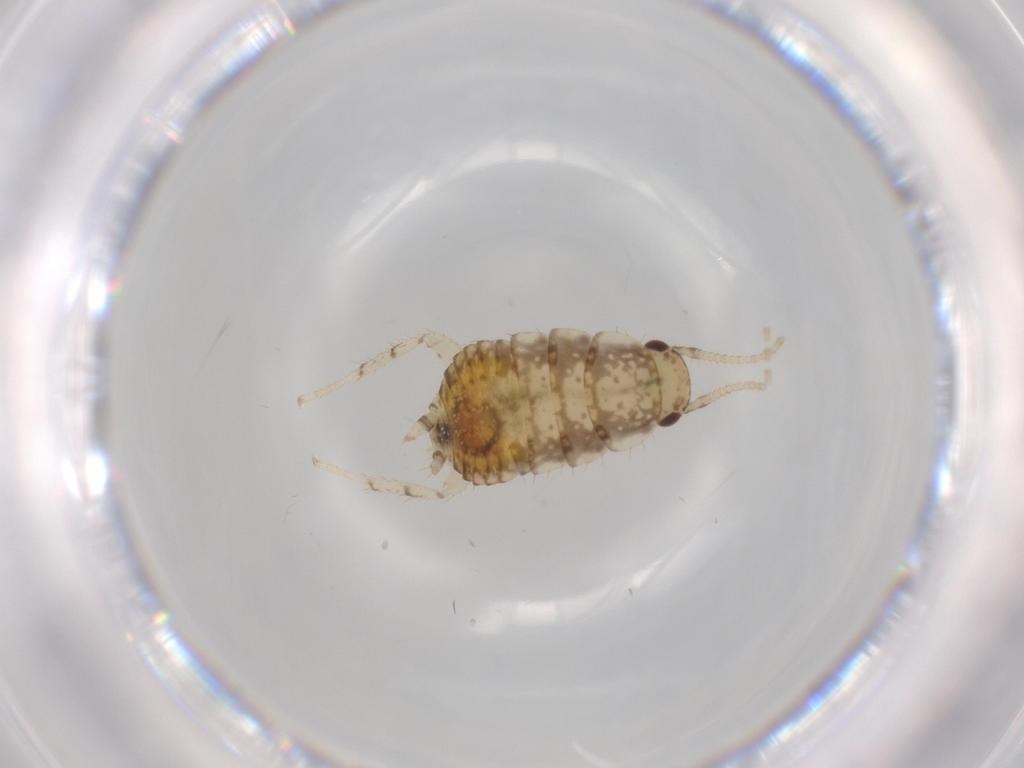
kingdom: Animalia
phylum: Arthropoda
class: Insecta
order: Blattodea
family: Ectobiidae
